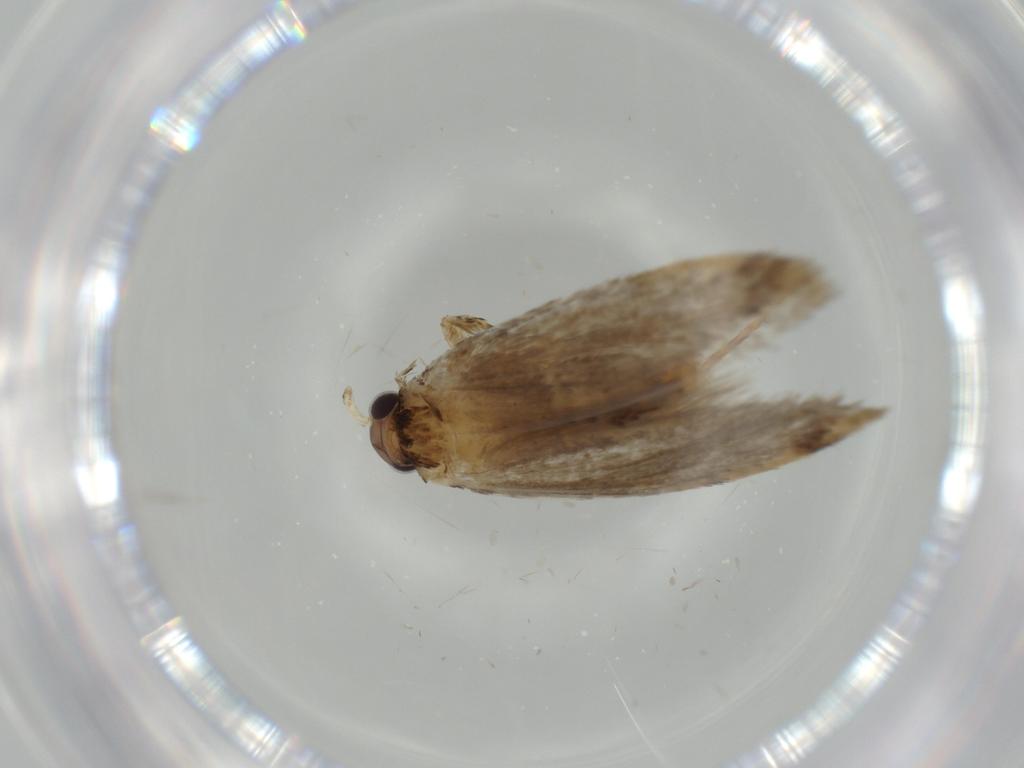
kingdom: Animalia
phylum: Arthropoda
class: Insecta
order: Lepidoptera
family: Tineidae
